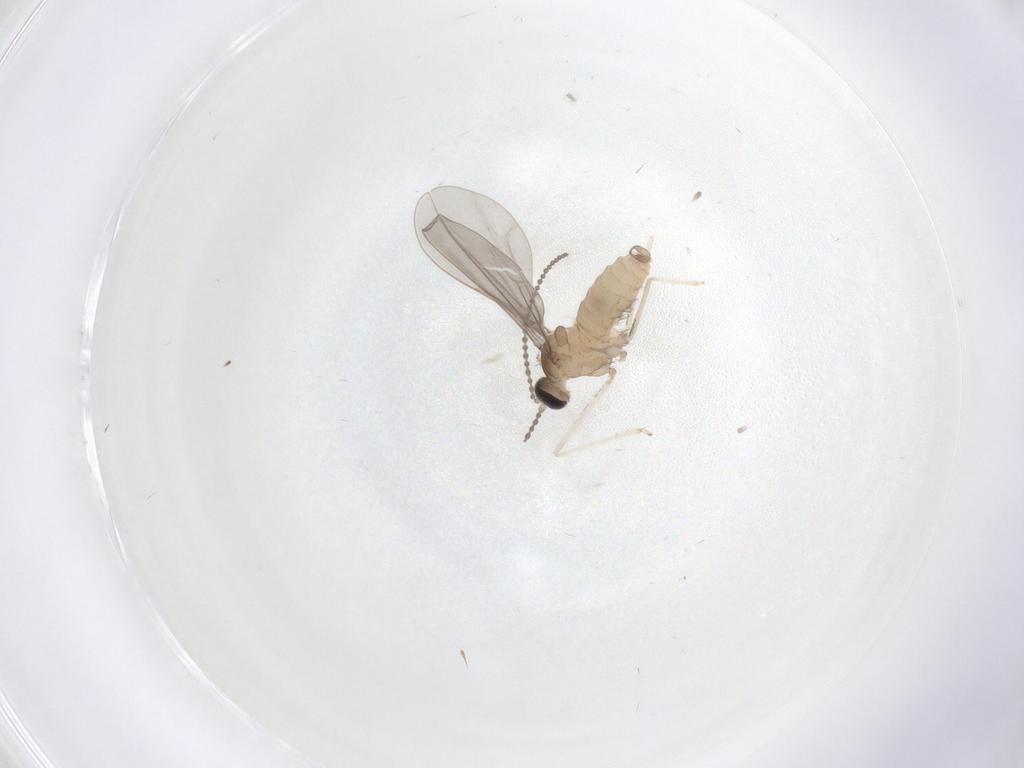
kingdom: Animalia
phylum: Arthropoda
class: Insecta
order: Diptera
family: Cecidomyiidae
